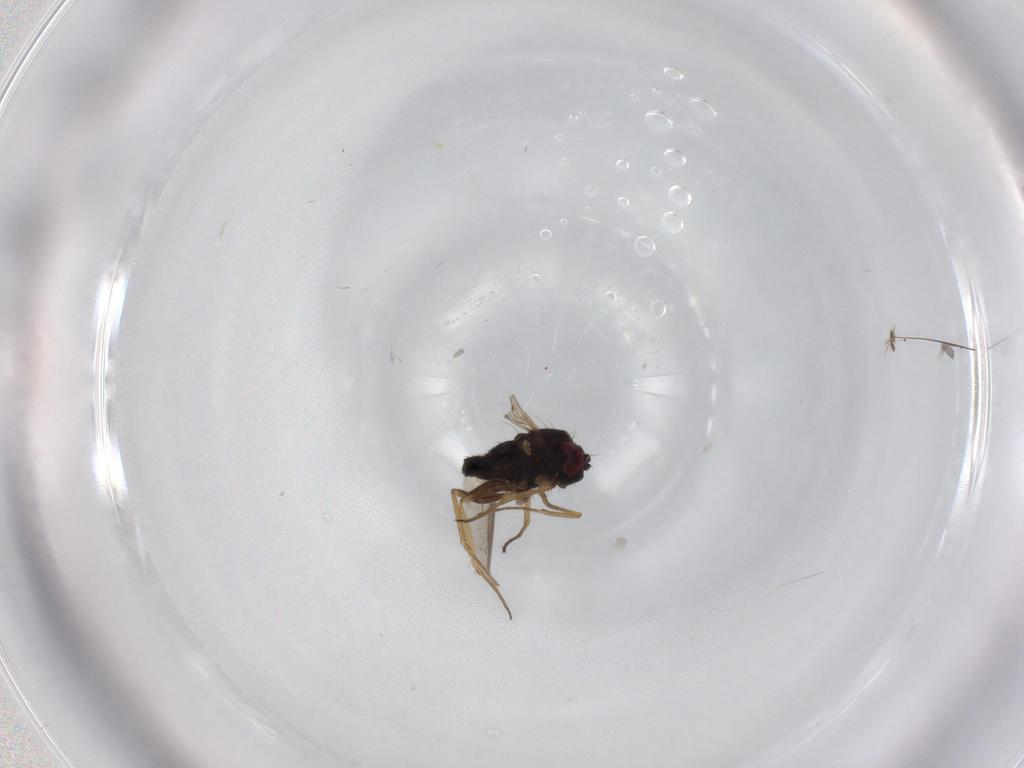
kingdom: Animalia
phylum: Arthropoda
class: Insecta
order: Diptera
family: Dolichopodidae
